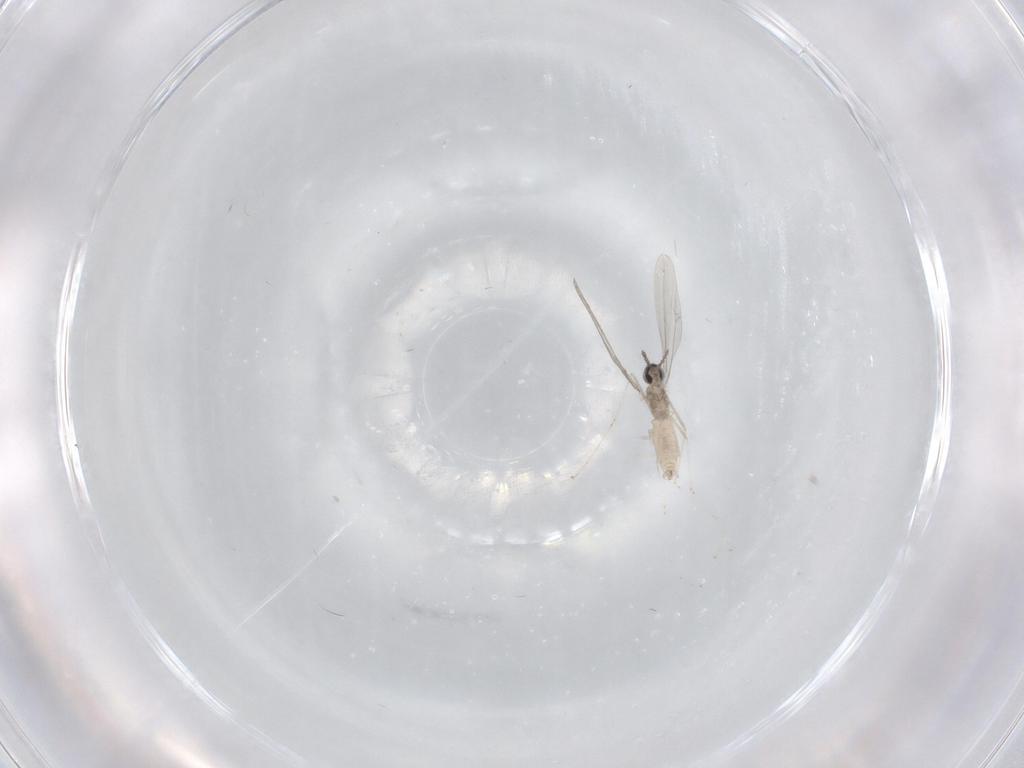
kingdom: Animalia
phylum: Arthropoda
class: Insecta
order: Diptera
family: Cecidomyiidae
